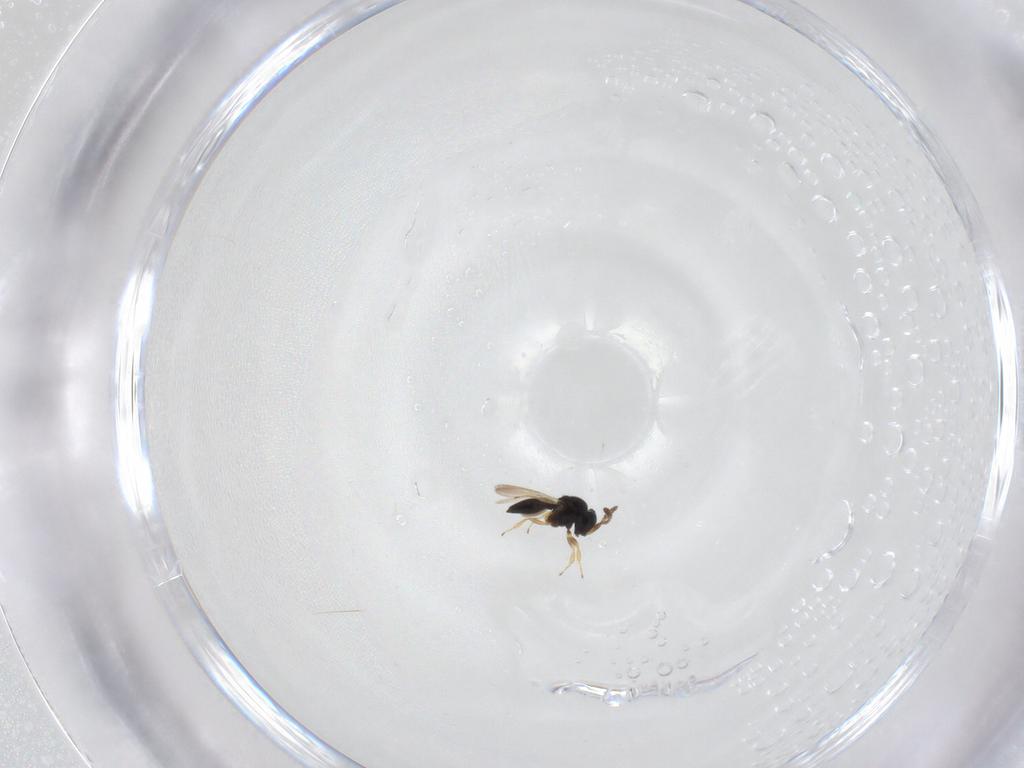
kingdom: Animalia
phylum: Arthropoda
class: Insecta
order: Hymenoptera
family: Scelionidae
